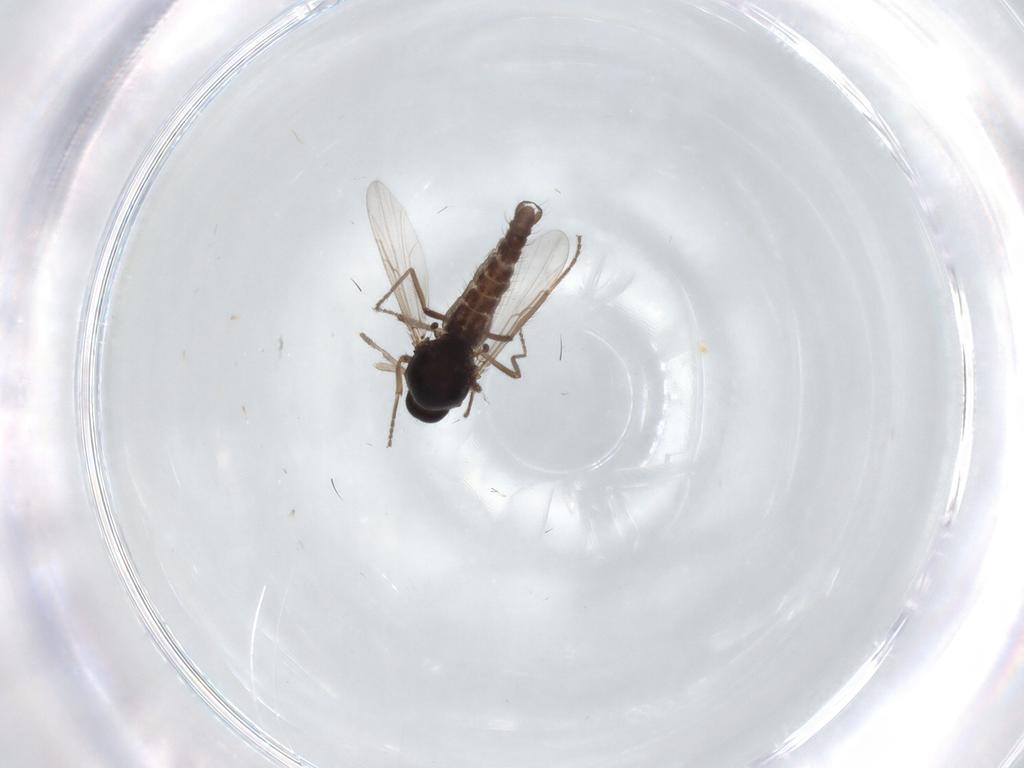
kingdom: Animalia
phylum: Arthropoda
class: Insecta
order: Diptera
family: Ceratopogonidae
